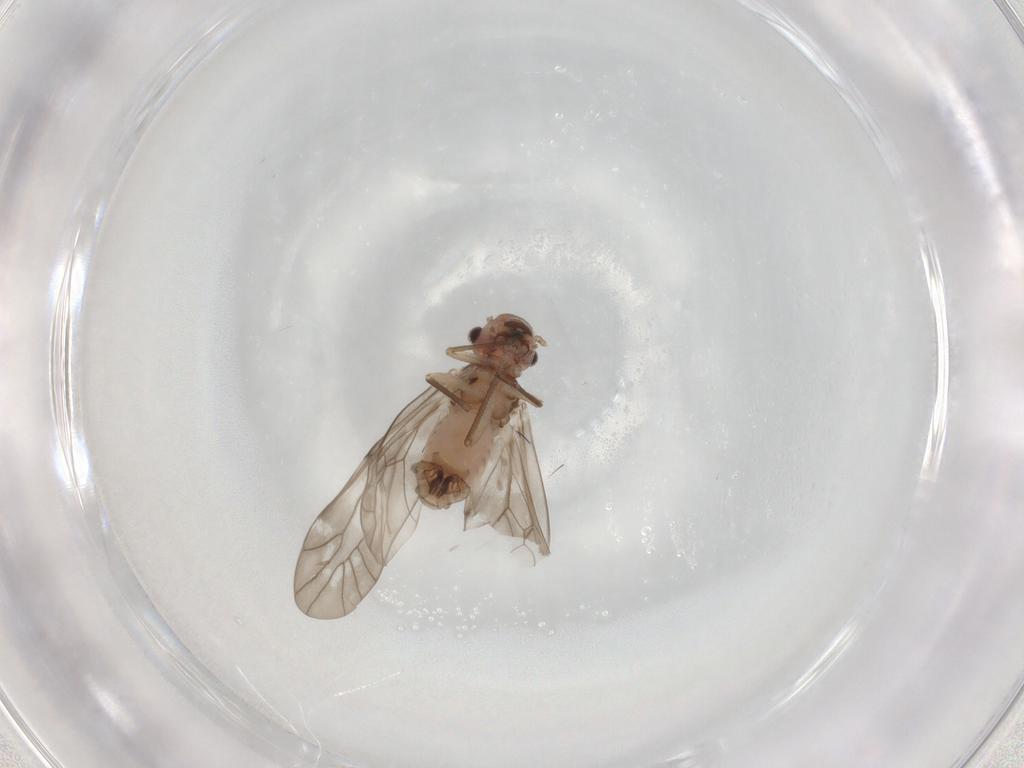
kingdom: Animalia
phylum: Arthropoda
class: Insecta
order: Psocodea
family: Peripsocidae
